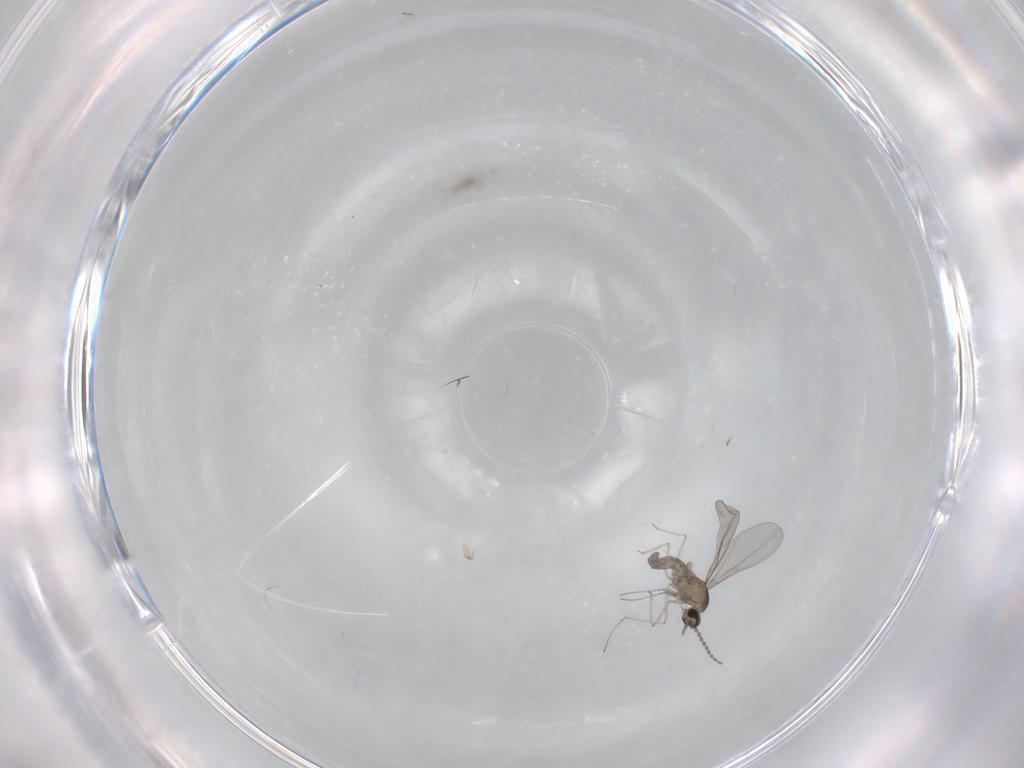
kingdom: Animalia
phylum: Arthropoda
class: Insecta
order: Diptera
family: Cecidomyiidae
